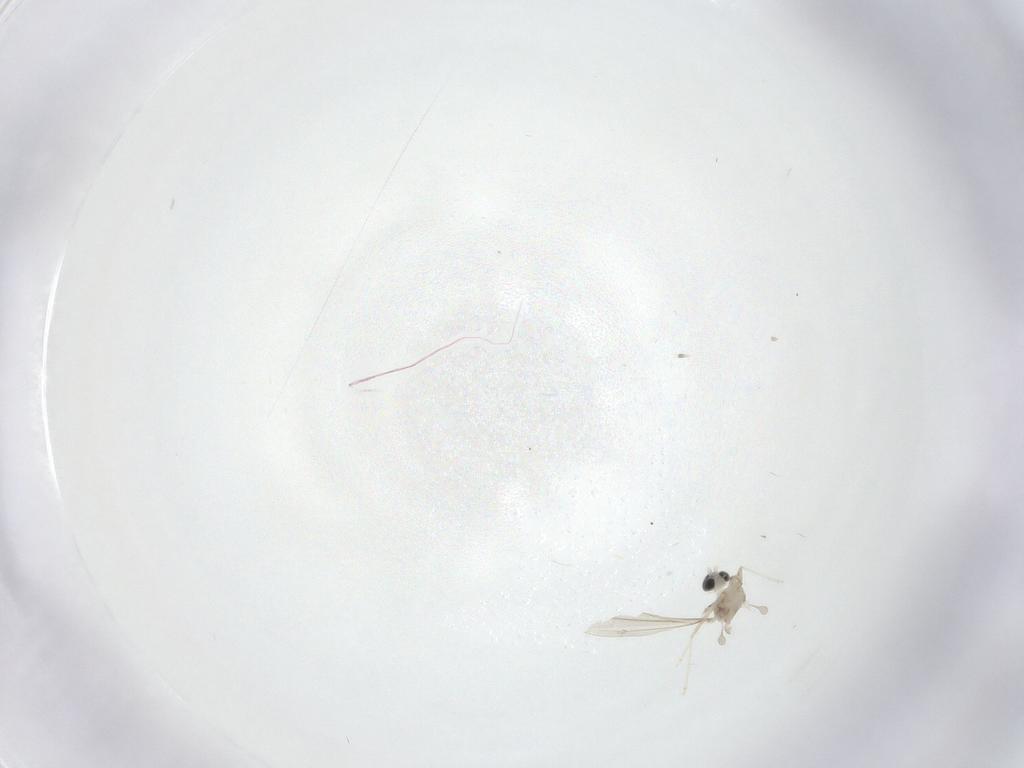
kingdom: Animalia
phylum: Arthropoda
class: Insecta
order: Diptera
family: Cecidomyiidae
